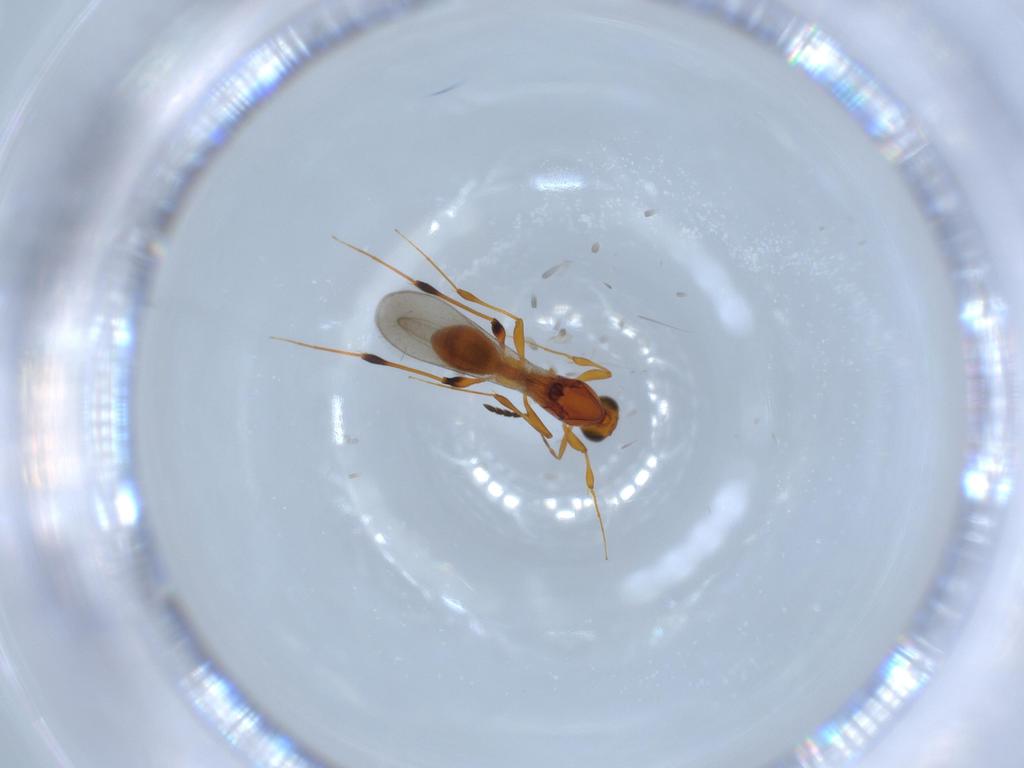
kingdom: Animalia
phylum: Arthropoda
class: Insecta
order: Hymenoptera
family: Platygastridae
